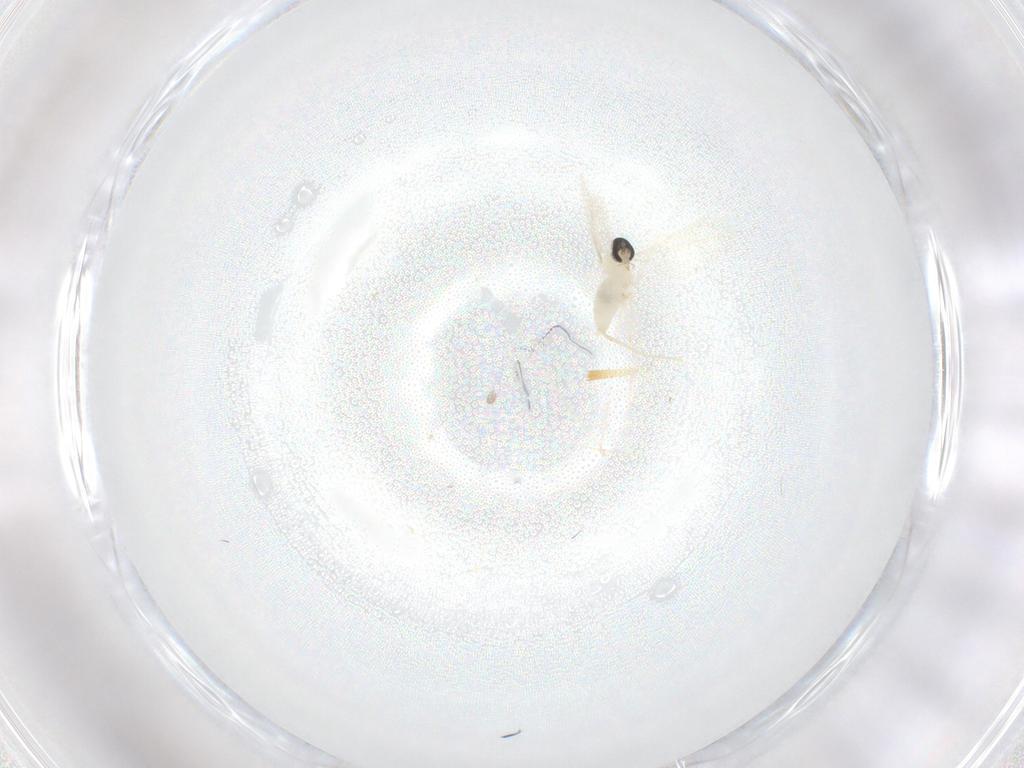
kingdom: Animalia
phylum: Arthropoda
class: Insecta
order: Diptera
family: Cecidomyiidae
